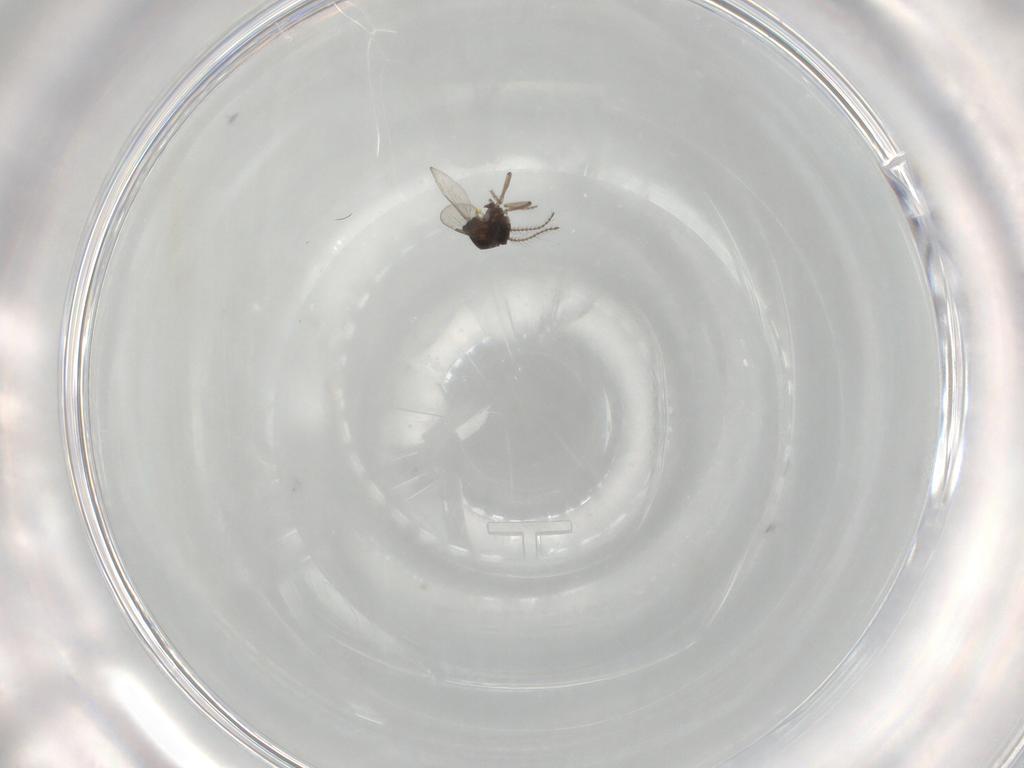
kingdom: Animalia
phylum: Arthropoda
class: Insecta
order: Diptera
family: Ceratopogonidae
